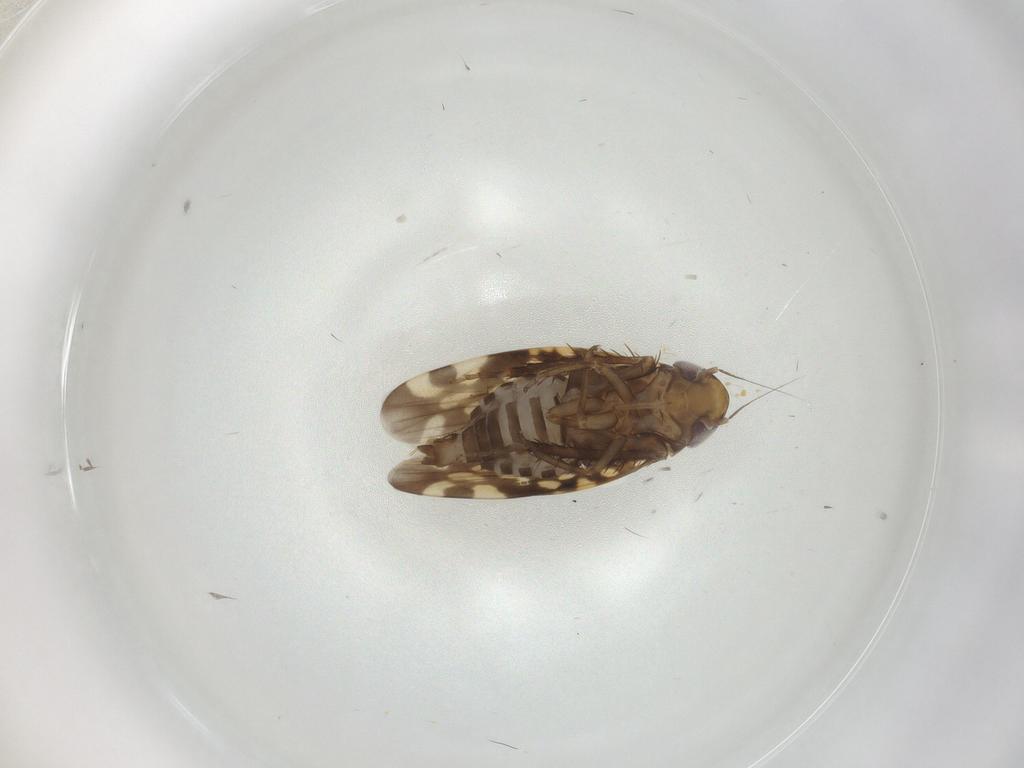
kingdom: Animalia
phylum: Arthropoda
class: Insecta
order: Hemiptera
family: Cicadellidae
